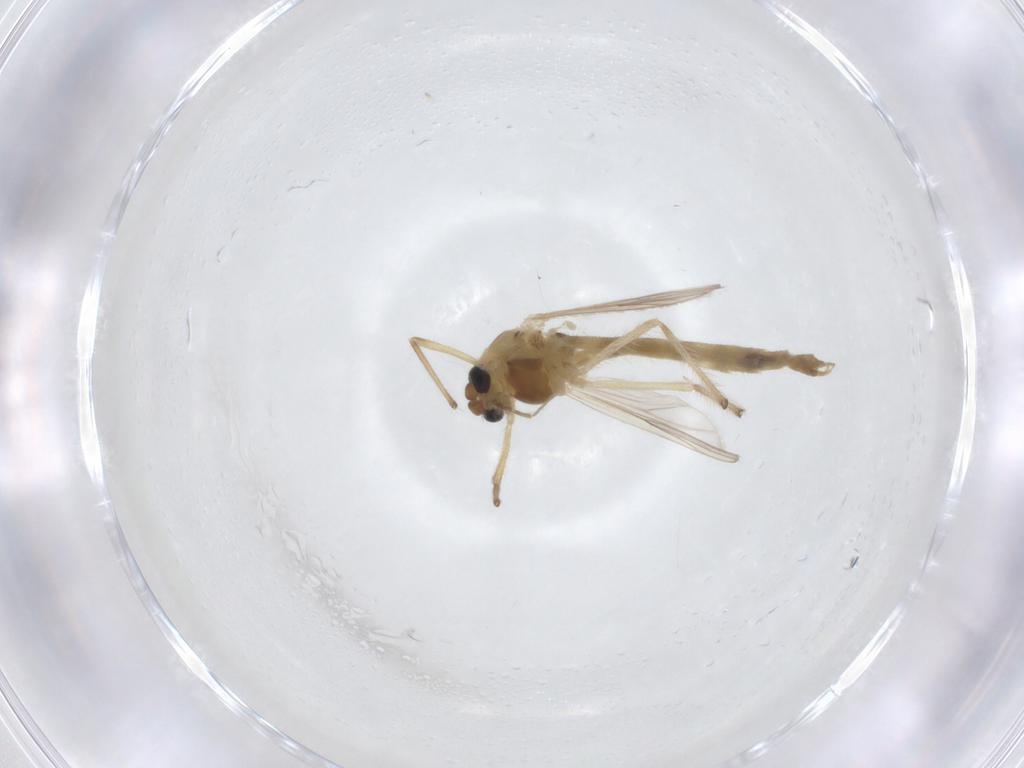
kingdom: Animalia
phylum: Arthropoda
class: Insecta
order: Diptera
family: Chironomidae
